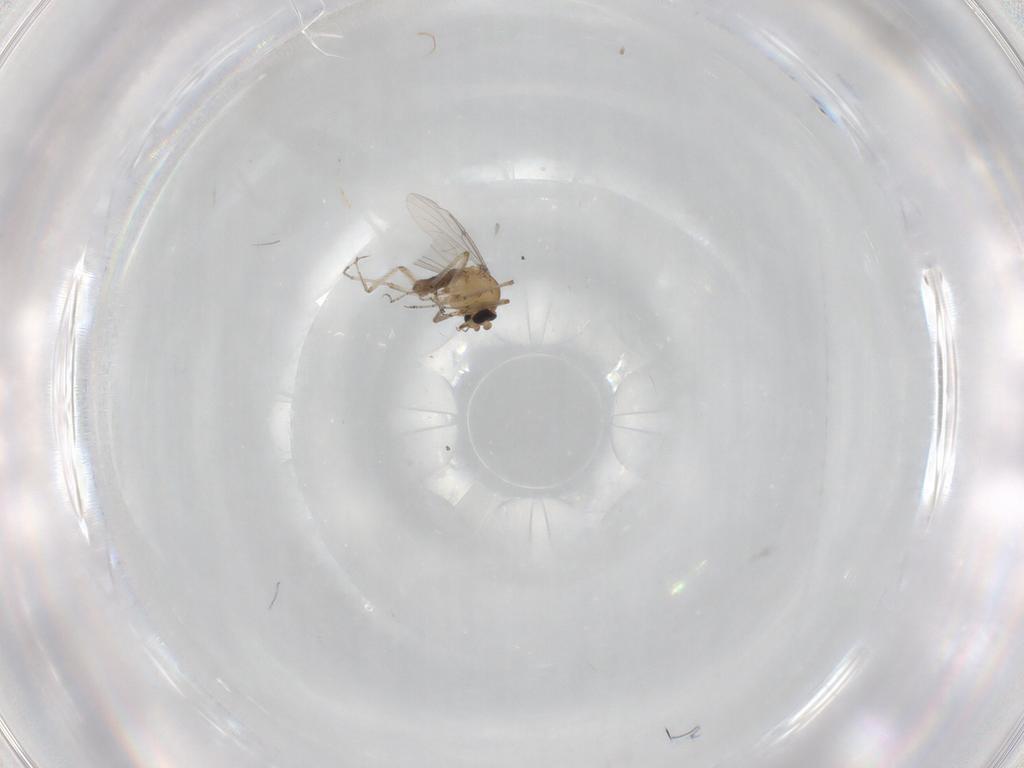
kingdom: Animalia
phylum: Arthropoda
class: Insecta
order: Diptera
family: Ceratopogonidae
